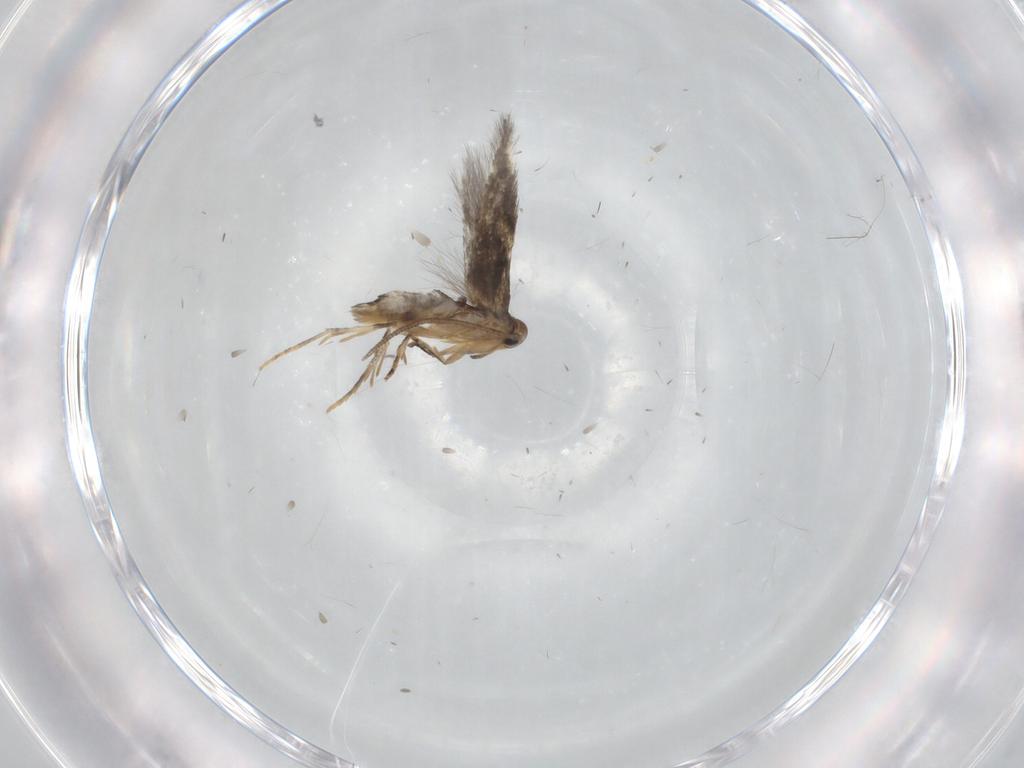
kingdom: Animalia
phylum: Arthropoda
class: Insecta
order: Lepidoptera
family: Elachistidae
